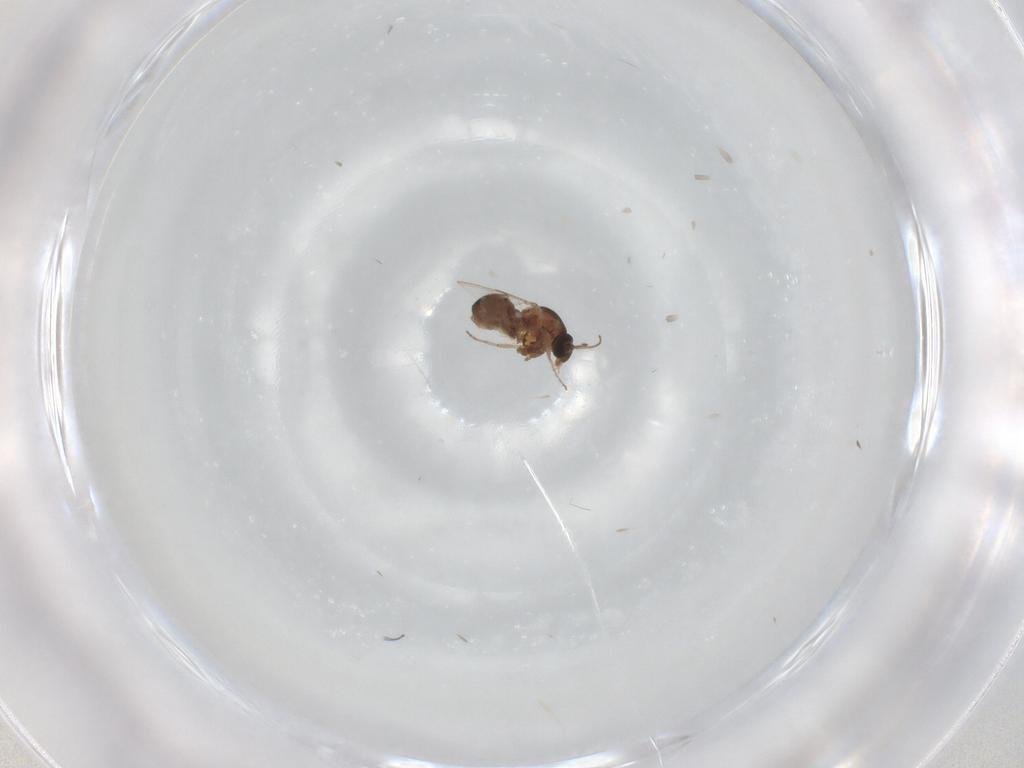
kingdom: Animalia
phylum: Arthropoda
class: Insecta
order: Diptera
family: Ceratopogonidae
